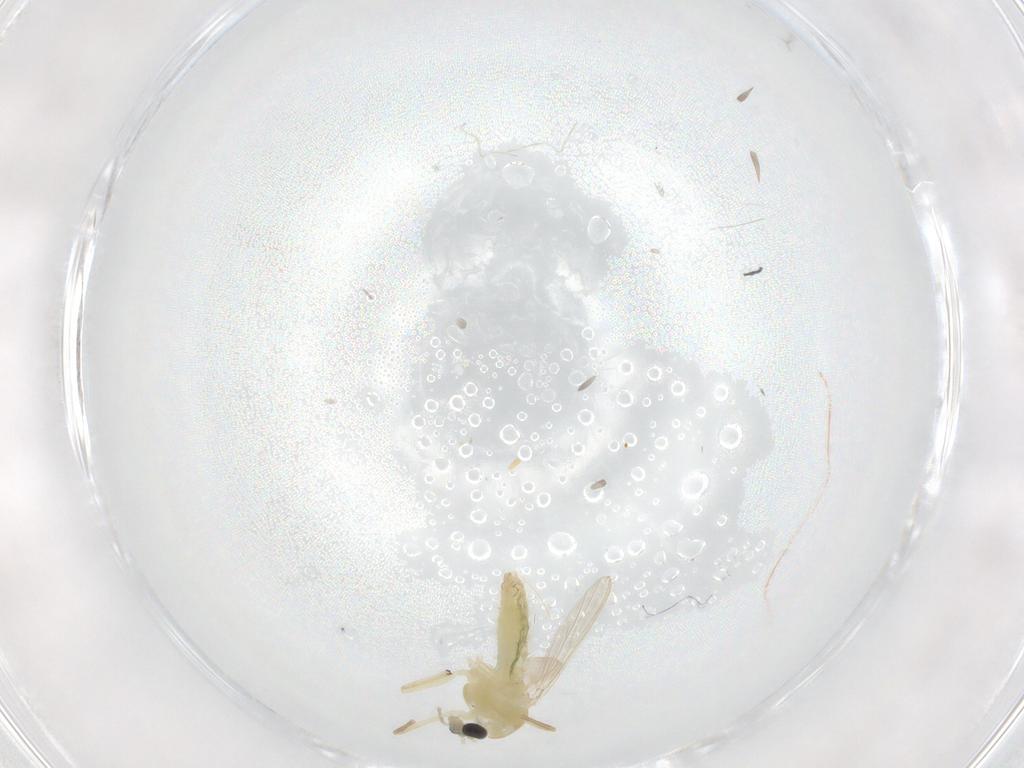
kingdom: Animalia
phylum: Arthropoda
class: Insecta
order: Diptera
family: Chironomidae
